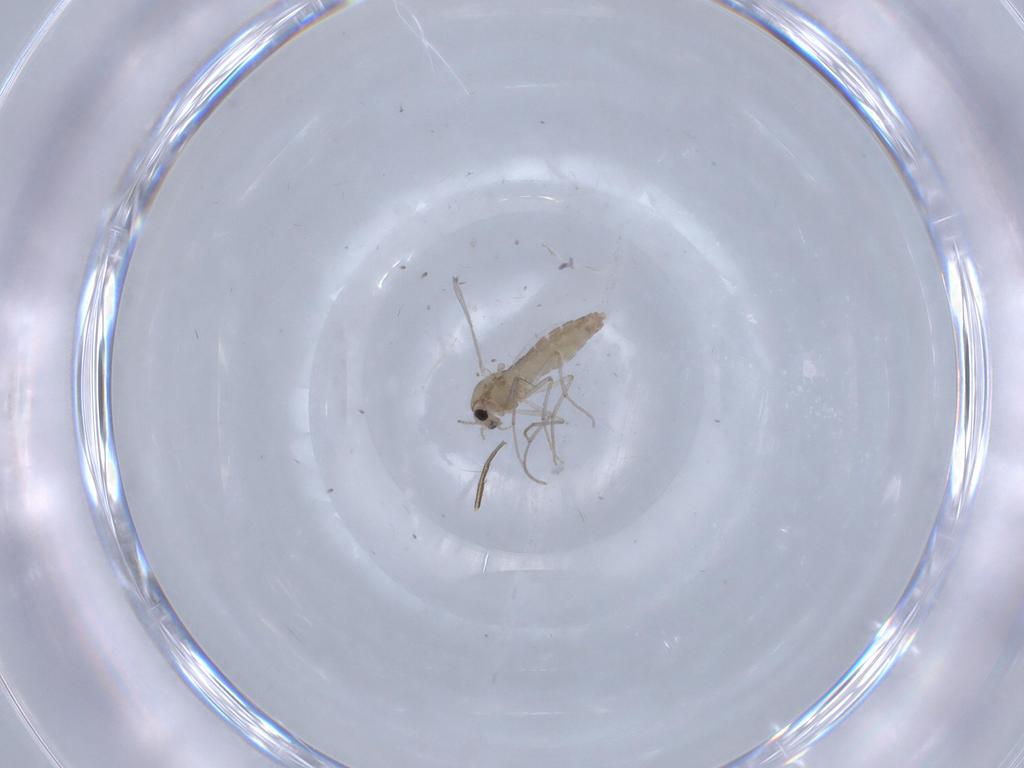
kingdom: Animalia
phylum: Arthropoda
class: Insecta
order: Diptera
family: Chironomidae
